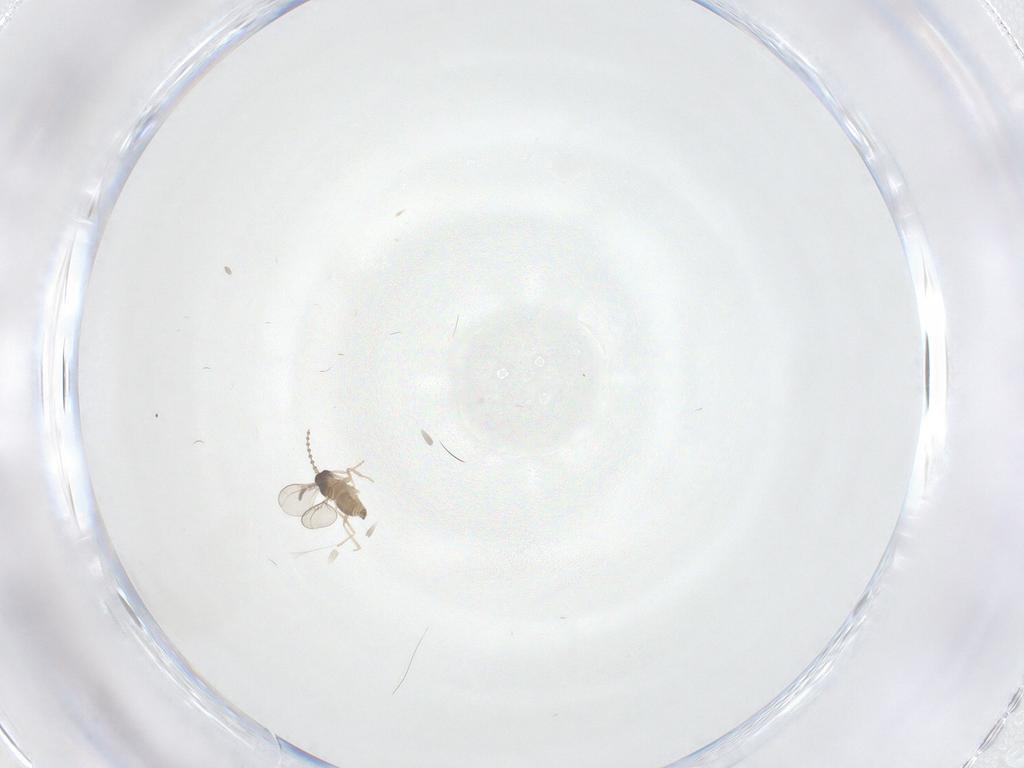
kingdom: Animalia
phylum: Arthropoda
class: Insecta
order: Diptera
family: Cecidomyiidae
